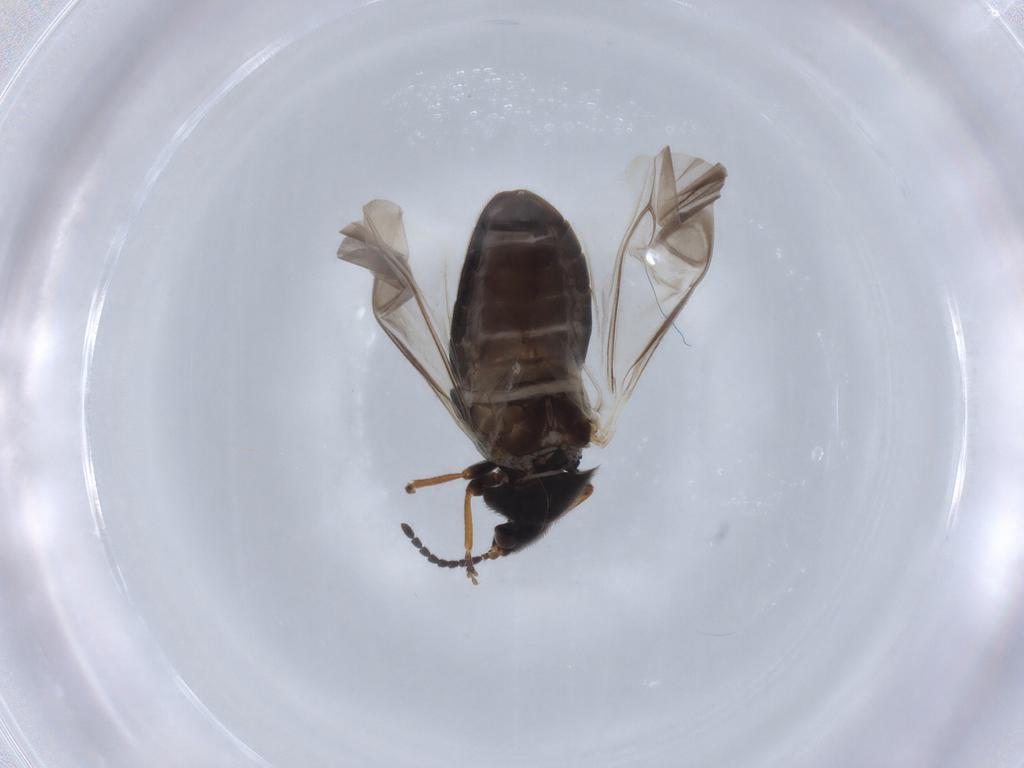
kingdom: Animalia
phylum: Arthropoda
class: Insecta
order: Coleoptera
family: Scirtidae
